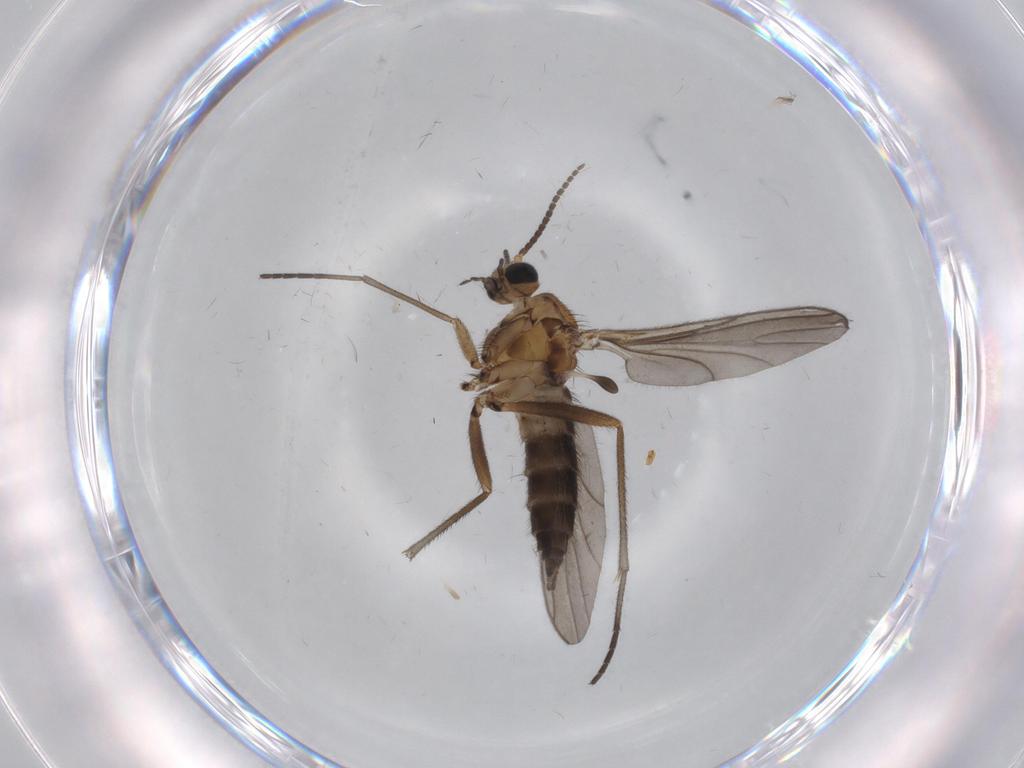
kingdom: Animalia
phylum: Arthropoda
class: Insecta
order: Diptera
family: Sciaridae
